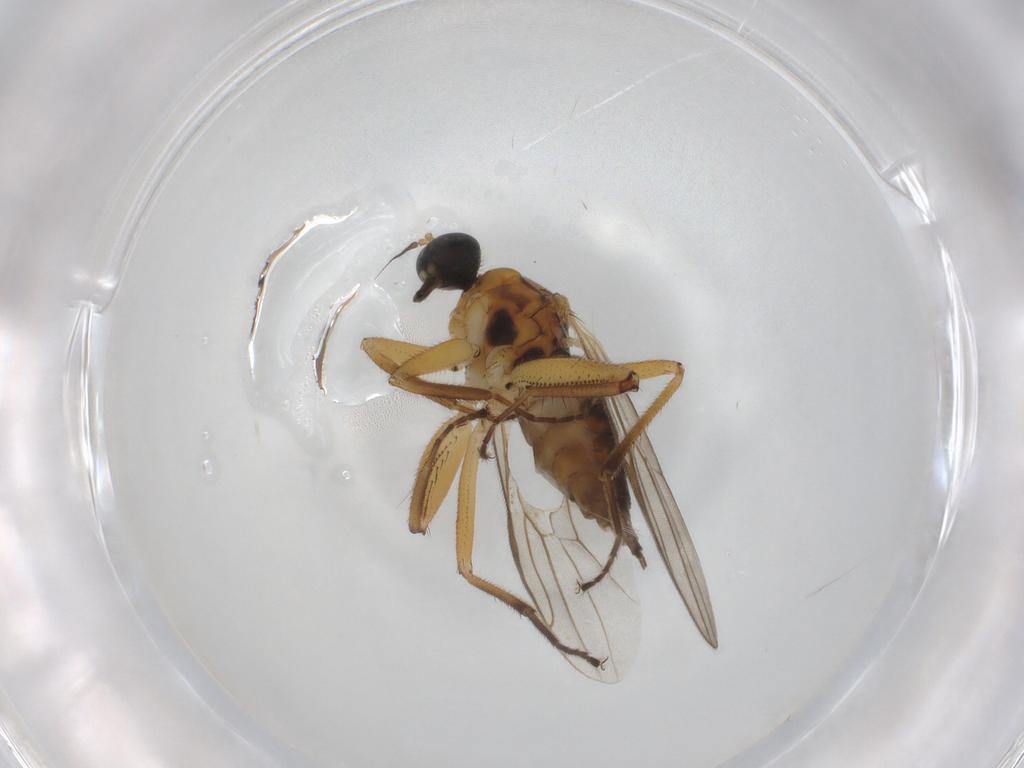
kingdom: Animalia
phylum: Arthropoda
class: Insecta
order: Diptera
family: Hybotidae
